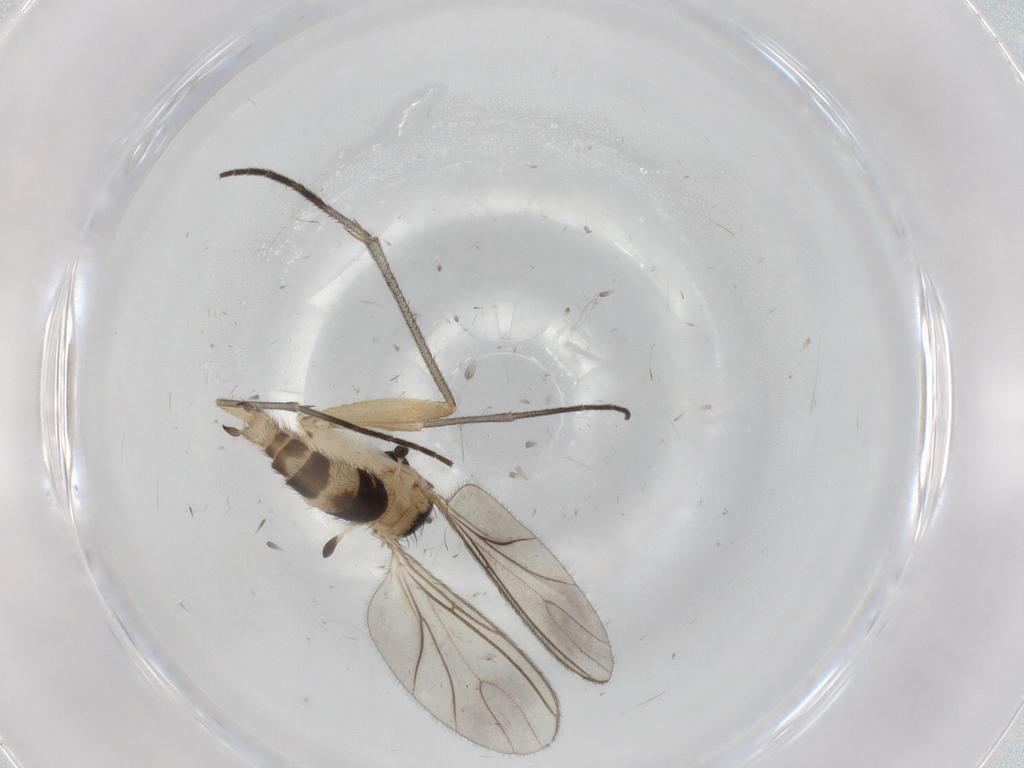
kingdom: Animalia
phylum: Arthropoda
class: Insecta
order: Diptera
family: Sciaridae
